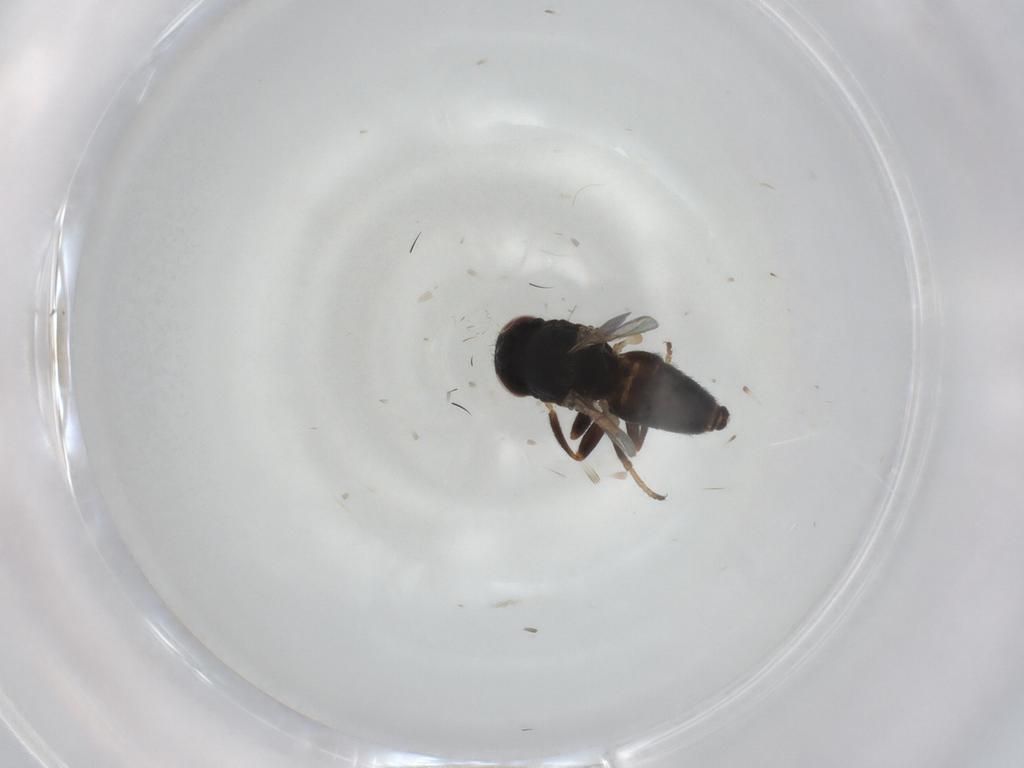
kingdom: Animalia
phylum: Arthropoda
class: Insecta
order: Diptera
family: Chloropidae
